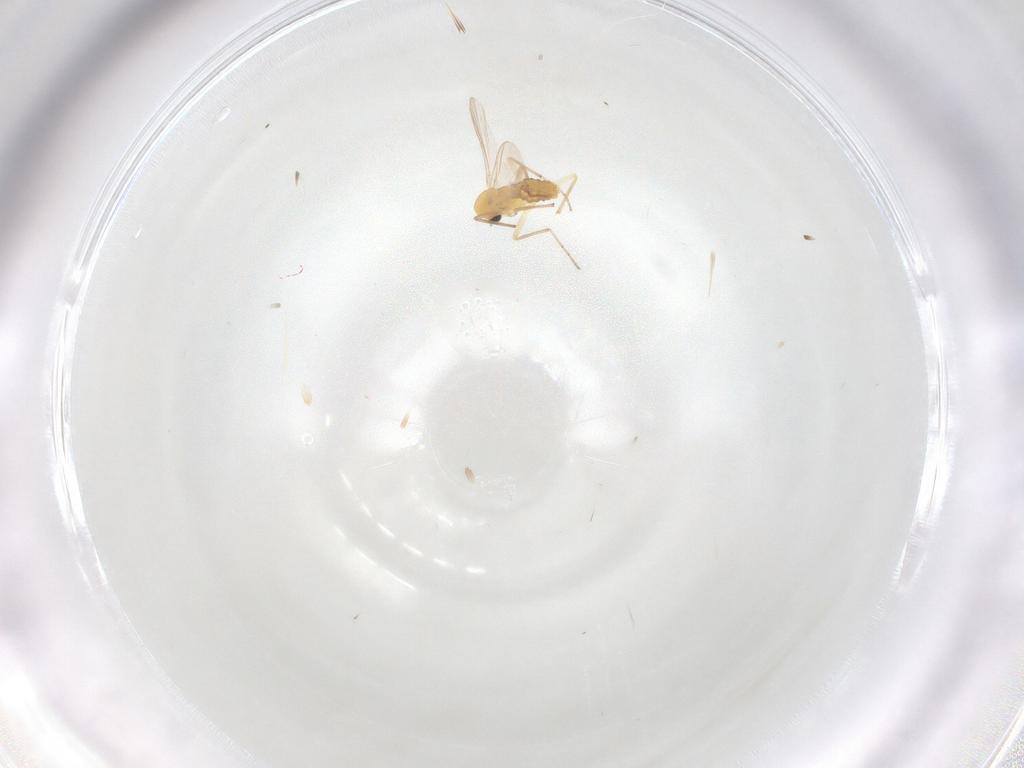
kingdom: Animalia
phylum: Arthropoda
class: Insecta
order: Diptera
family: Chironomidae
